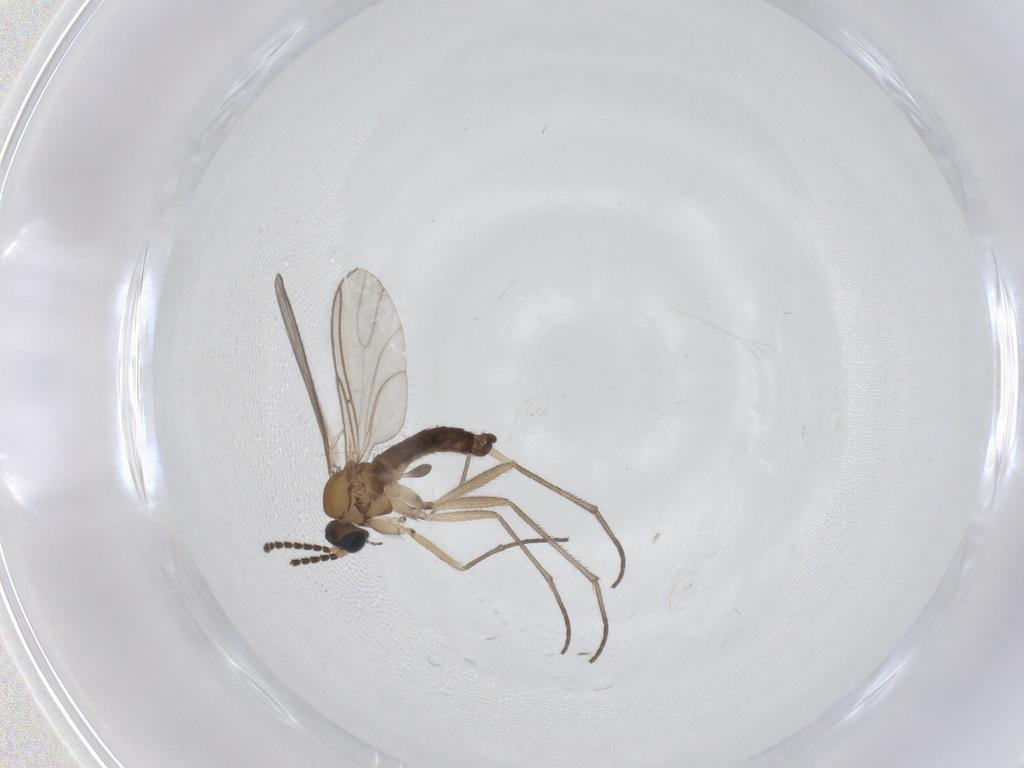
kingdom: Animalia
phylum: Arthropoda
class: Insecta
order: Diptera
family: Sciaridae
